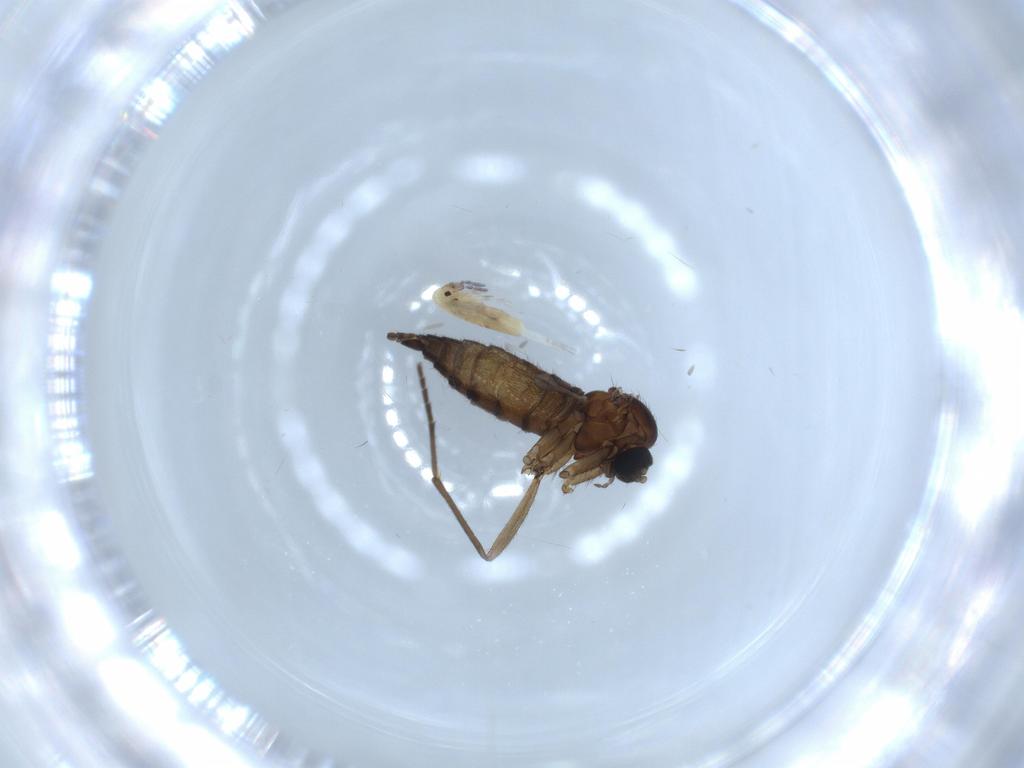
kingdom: Animalia
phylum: Arthropoda
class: Insecta
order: Diptera
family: Sciaridae
